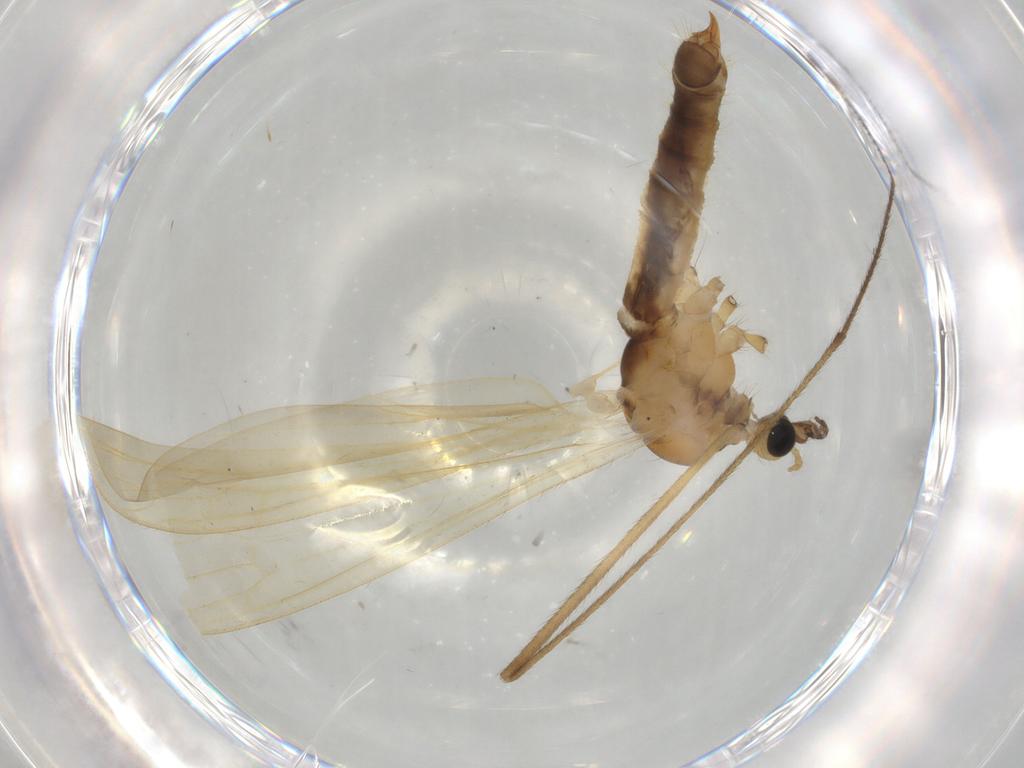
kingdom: Animalia
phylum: Arthropoda
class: Insecta
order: Diptera
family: Limoniidae
